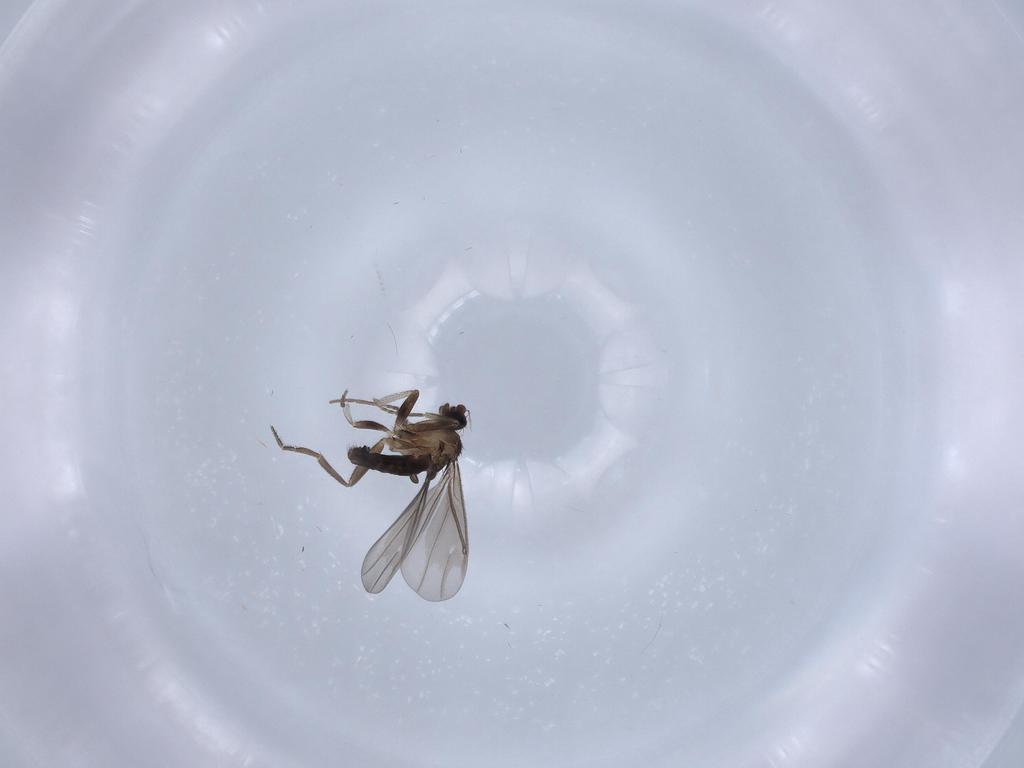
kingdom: Animalia
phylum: Arthropoda
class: Insecta
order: Diptera
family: Phoridae
